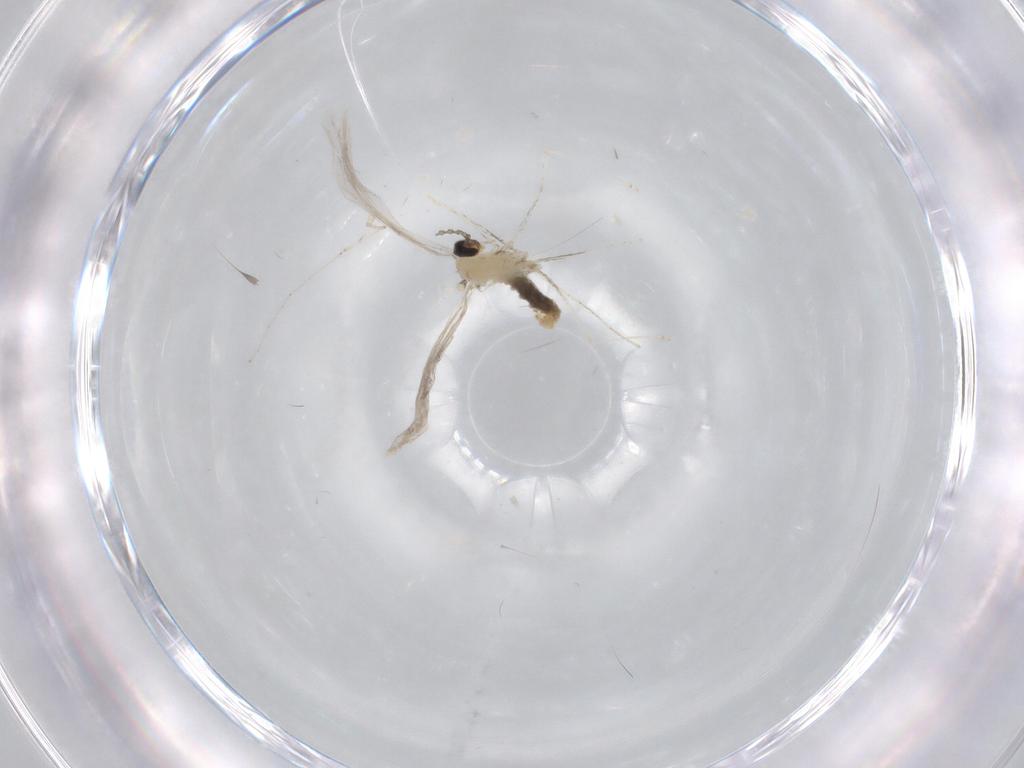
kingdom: Animalia
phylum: Arthropoda
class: Insecta
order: Diptera
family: Cecidomyiidae
